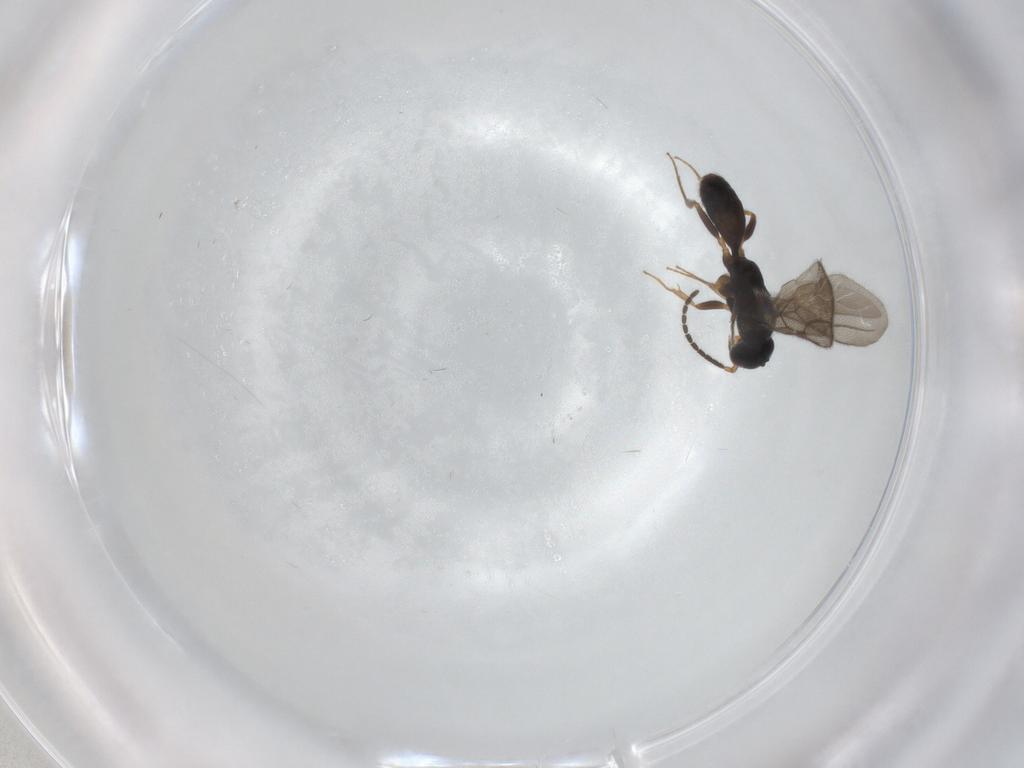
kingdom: Animalia
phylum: Arthropoda
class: Insecta
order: Hymenoptera
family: Bethylidae
